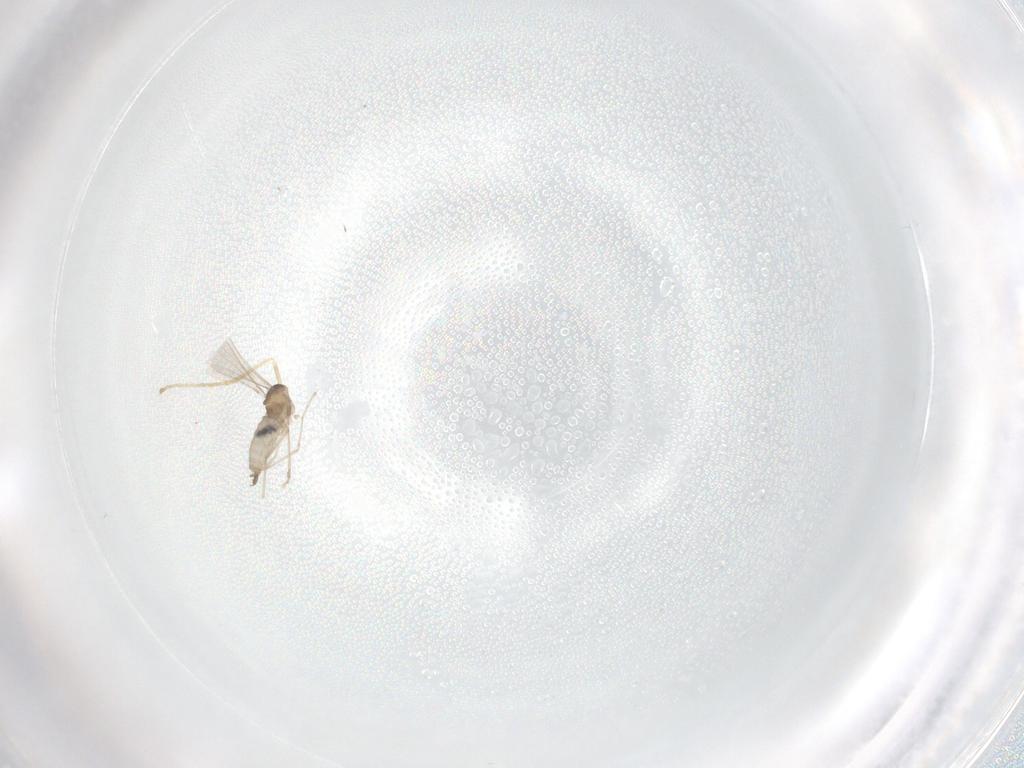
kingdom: Animalia
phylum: Arthropoda
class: Insecta
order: Diptera
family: Cecidomyiidae
